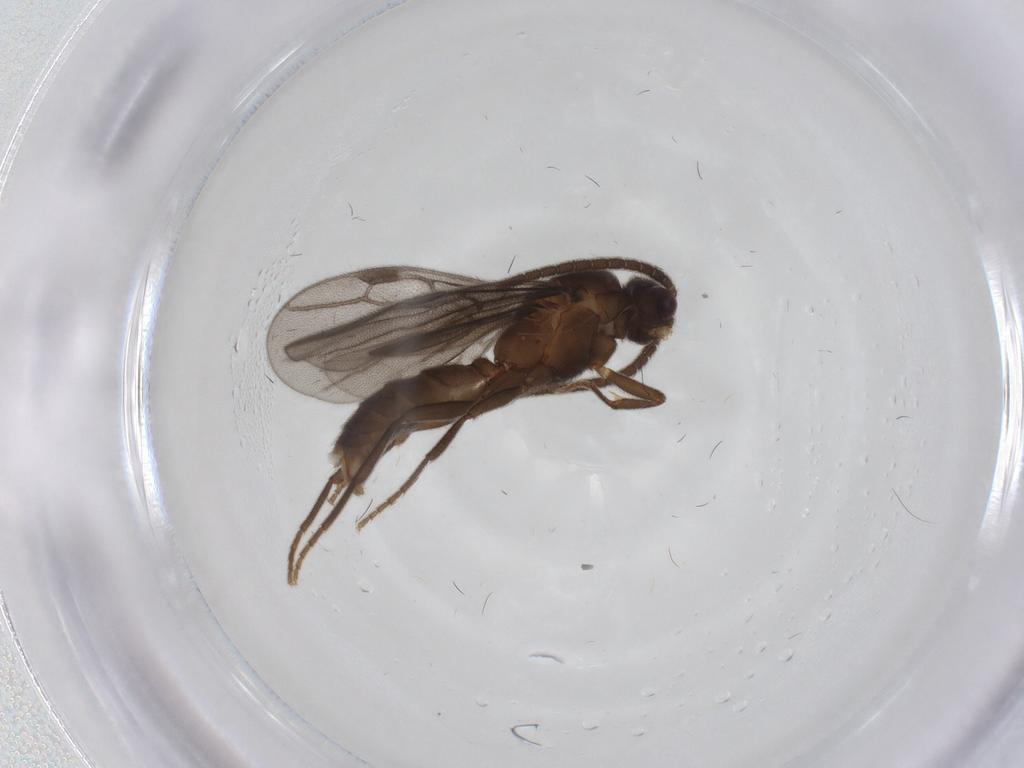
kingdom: Animalia
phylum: Arthropoda
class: Insecta
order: Hymenoptera
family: Formicidae
